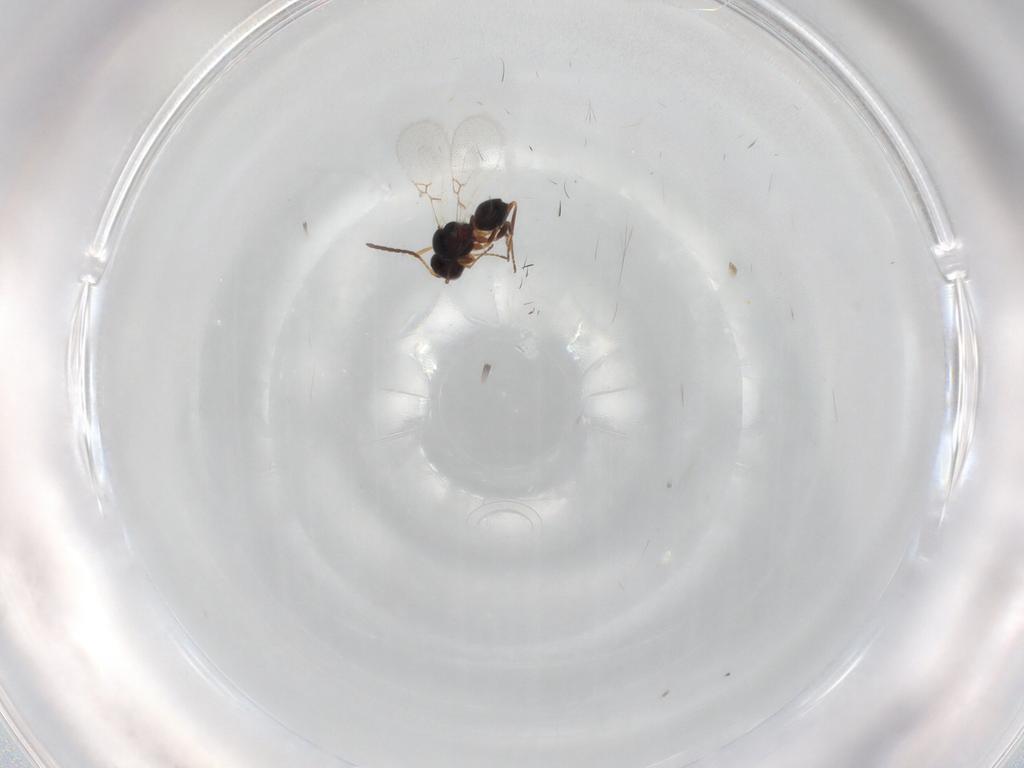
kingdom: Animalia
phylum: Arthropoda
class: Insecta
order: Hymenoptera
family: Figitidae
